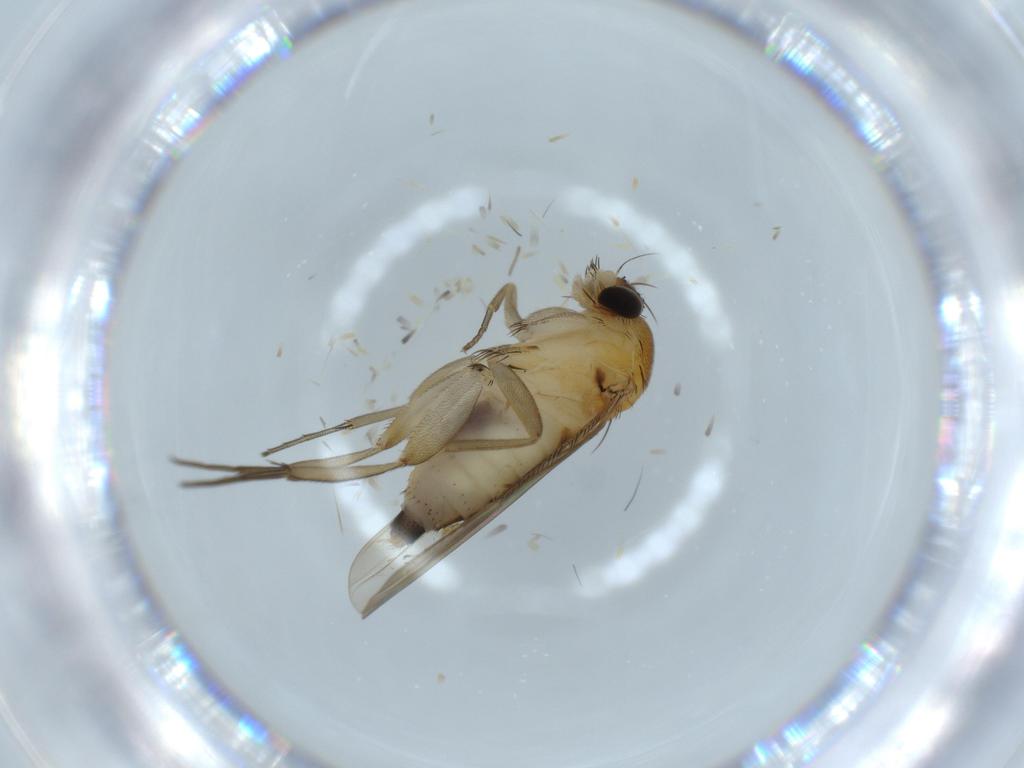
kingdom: Animalia
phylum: Arthropoda
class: Insecta
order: Diptera
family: Phoridae
